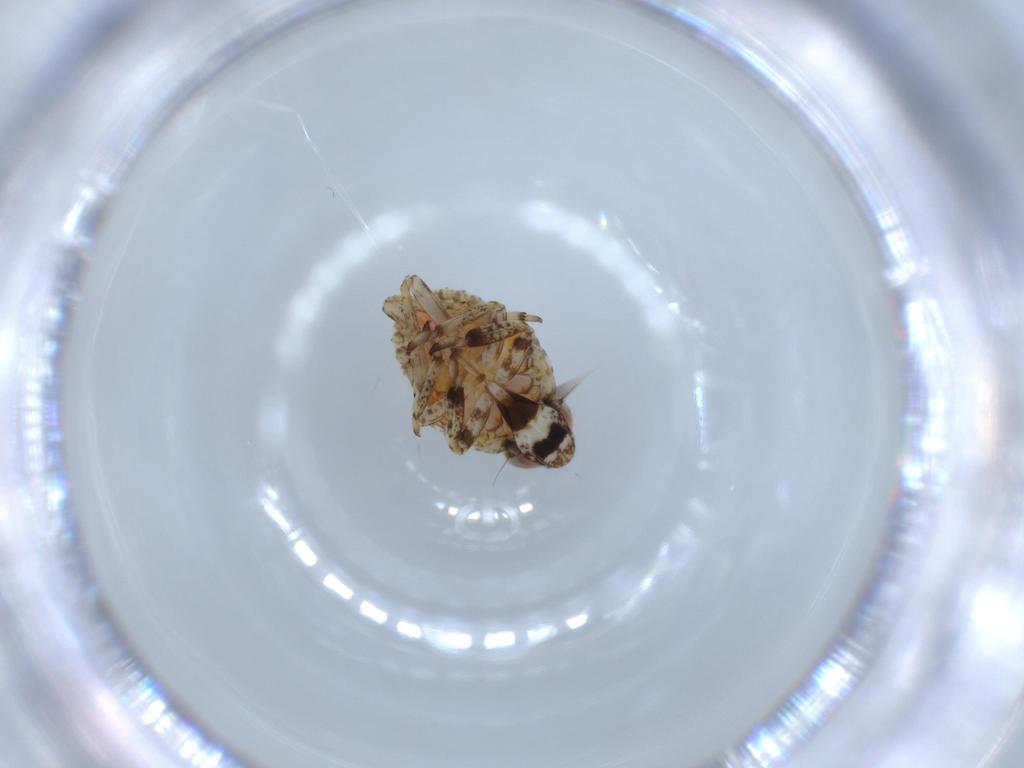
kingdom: Animalia
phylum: Arthropoda
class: Insecta
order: Hemiptera
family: Issidae
